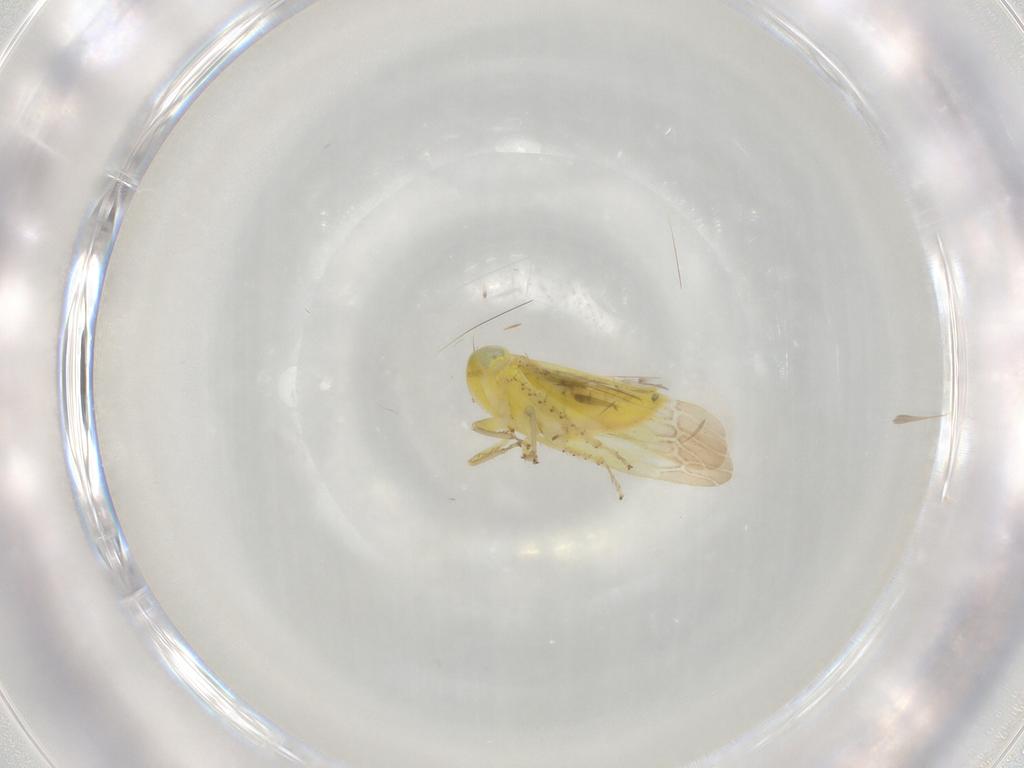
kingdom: Animalia
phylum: Arthropoda
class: Insecta
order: Hemiptera
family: Cicadellidae
